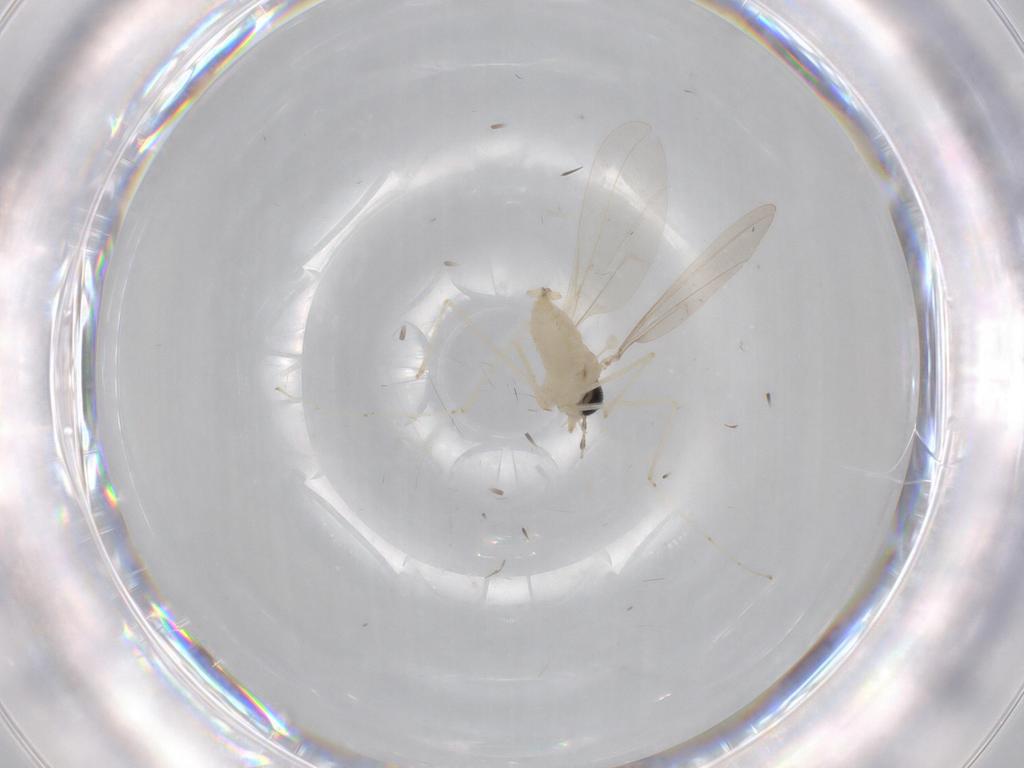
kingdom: Animalia
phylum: Arthropoda
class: Insecta
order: Diptera
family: Cecidomyiidae
